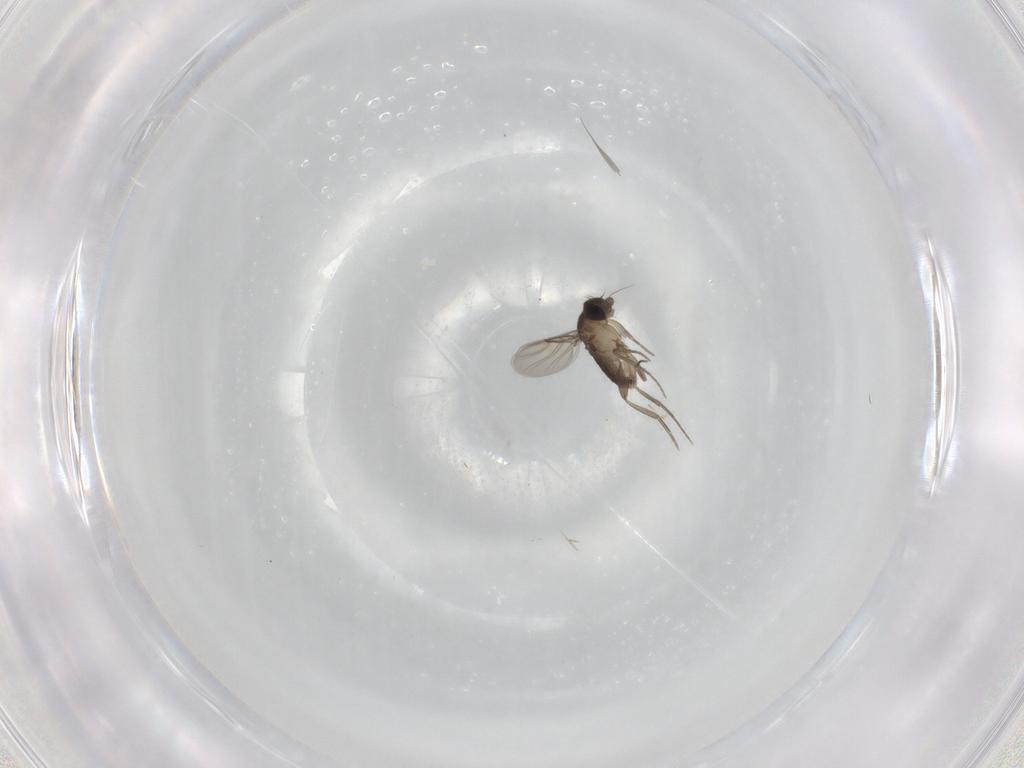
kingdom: Animalia
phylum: Arthropoda
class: Insecta
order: Diptera
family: Phoridae
